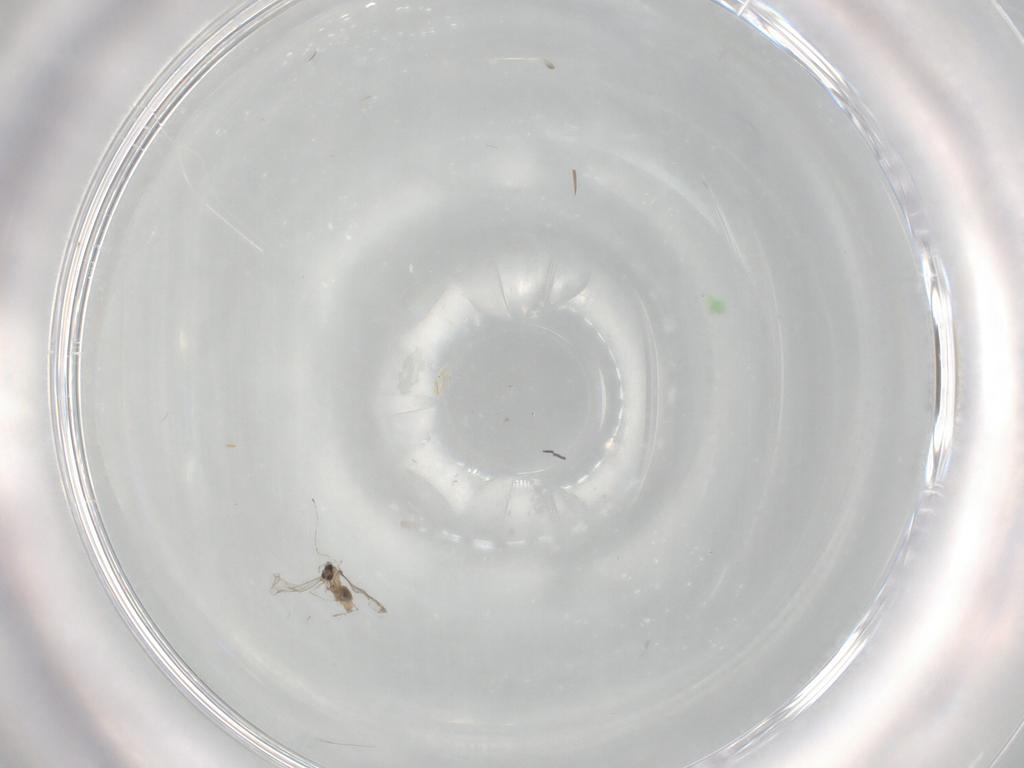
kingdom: Animalia
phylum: Arthropoda
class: Insecta
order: Diptera
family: Cecidomyiidae
